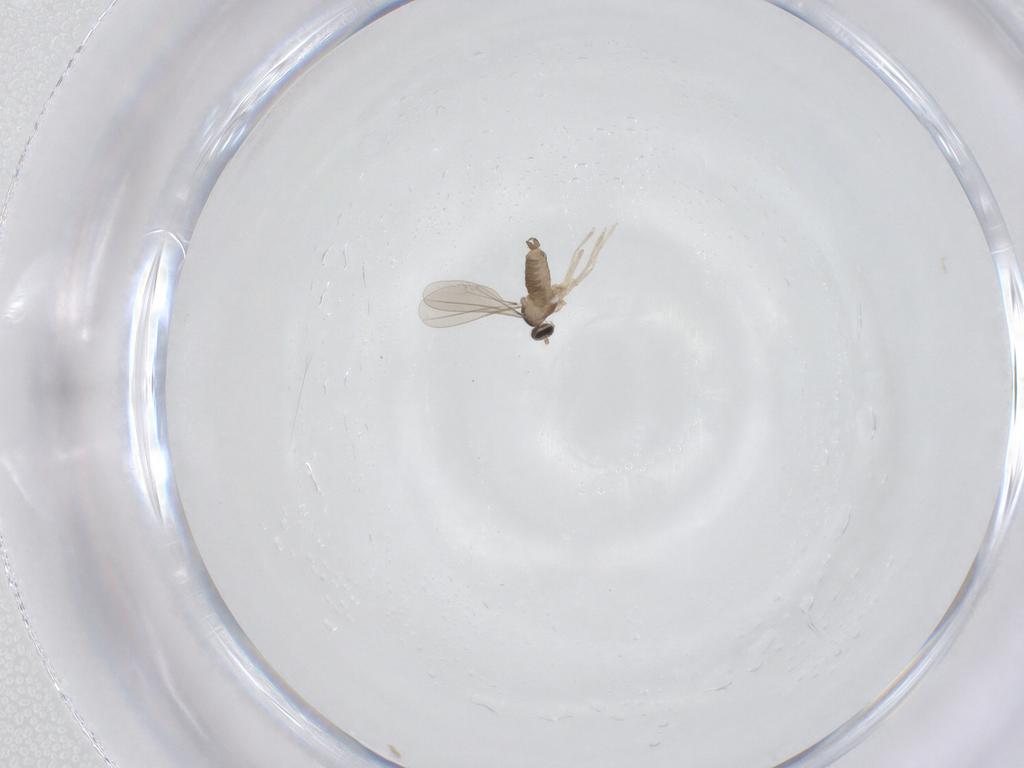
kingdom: Animalia
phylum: Arthropoda
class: Insecta
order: Diptera
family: Cecidomyiidae
